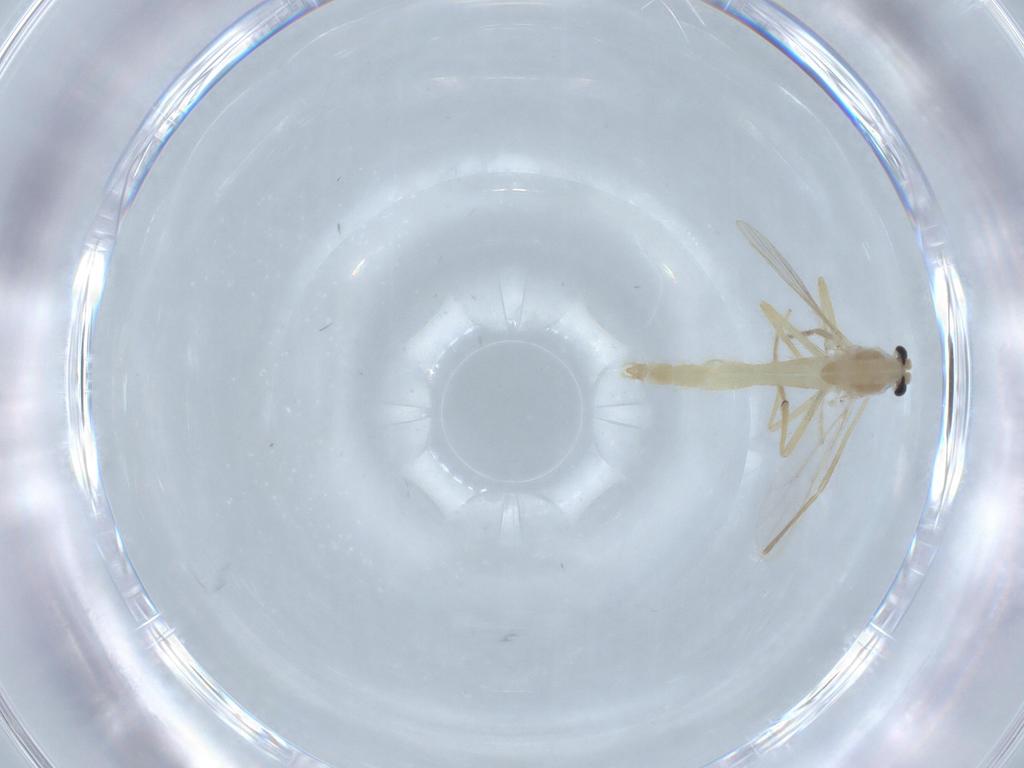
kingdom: Animalia
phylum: Arthropoda
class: Insecta
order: Diptera
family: Chironomidae
